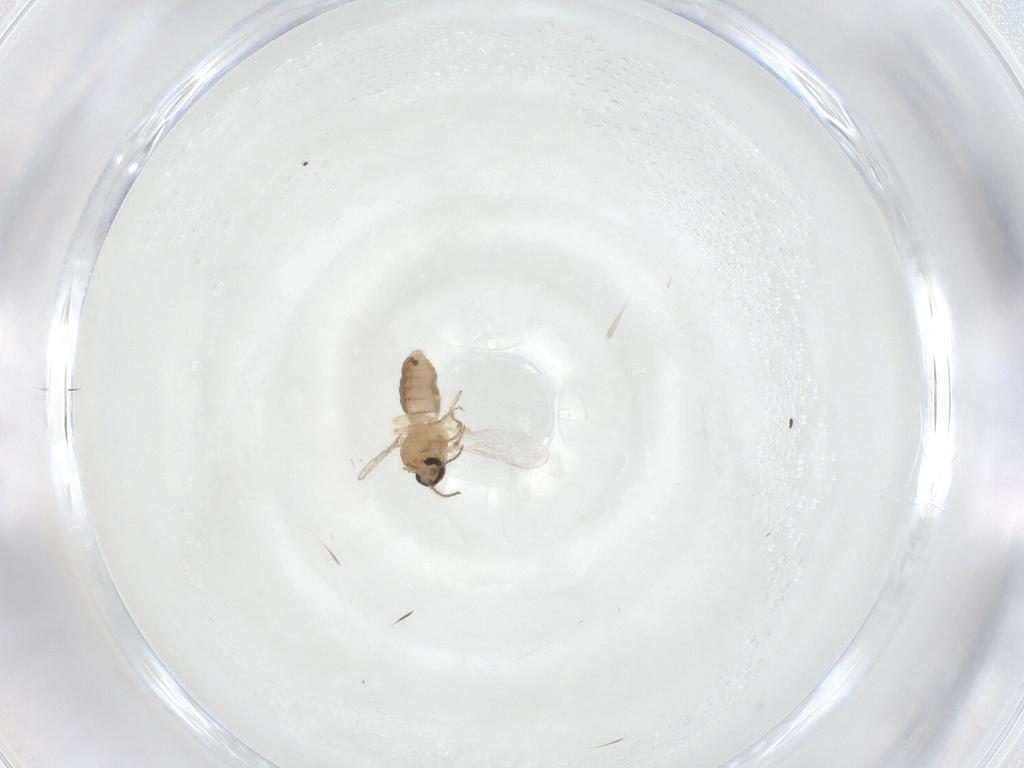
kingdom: Animalia
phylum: Arthropoda
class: Insecta
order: Diptera
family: Ceratopogonidae
